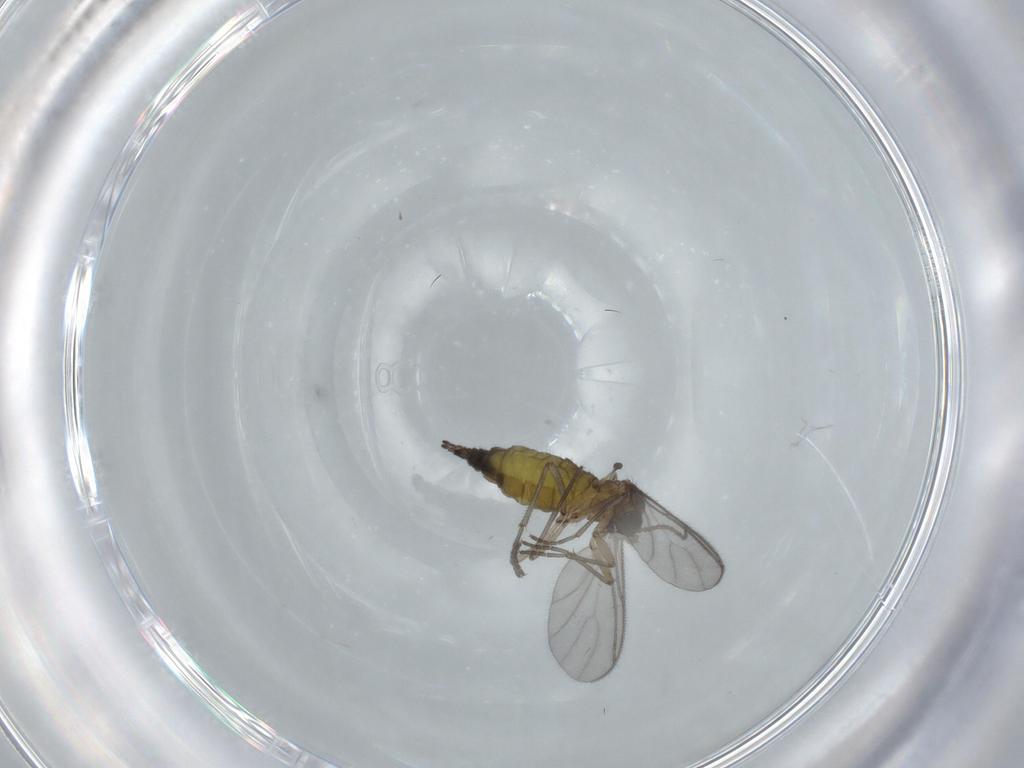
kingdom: Animalia
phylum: Arthropoda
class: Insecta
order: Diptera
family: Sciaridae
